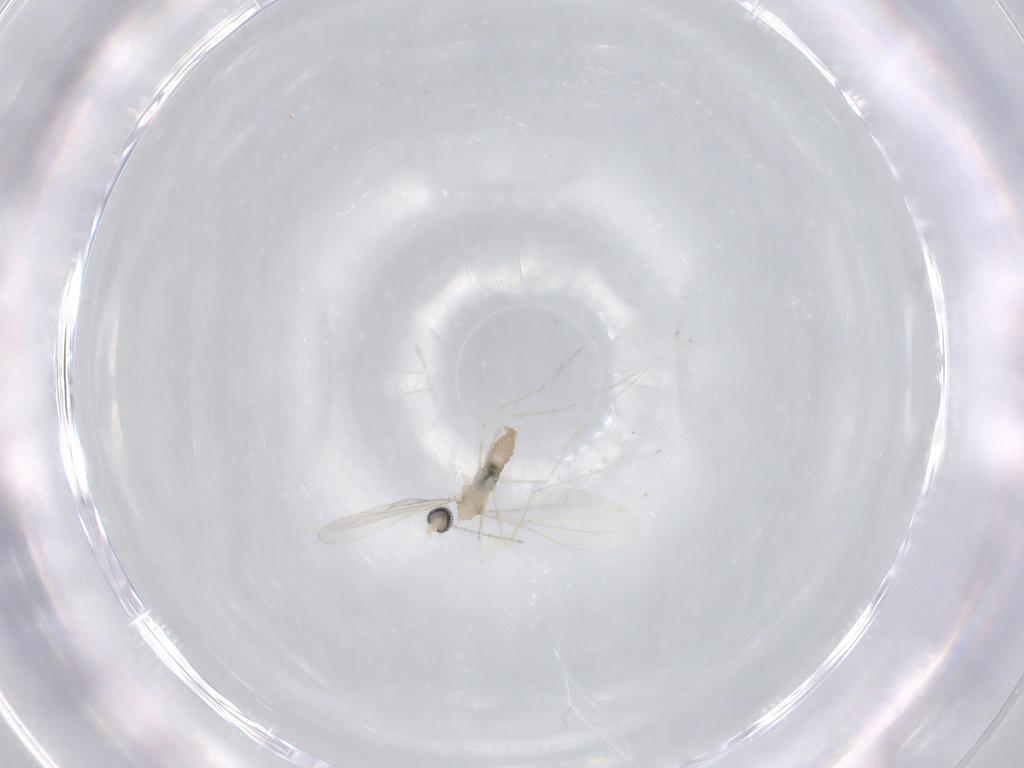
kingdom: Animalia
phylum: Arthropoda
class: Insecta
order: Diptera
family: Cecidomyiidae
